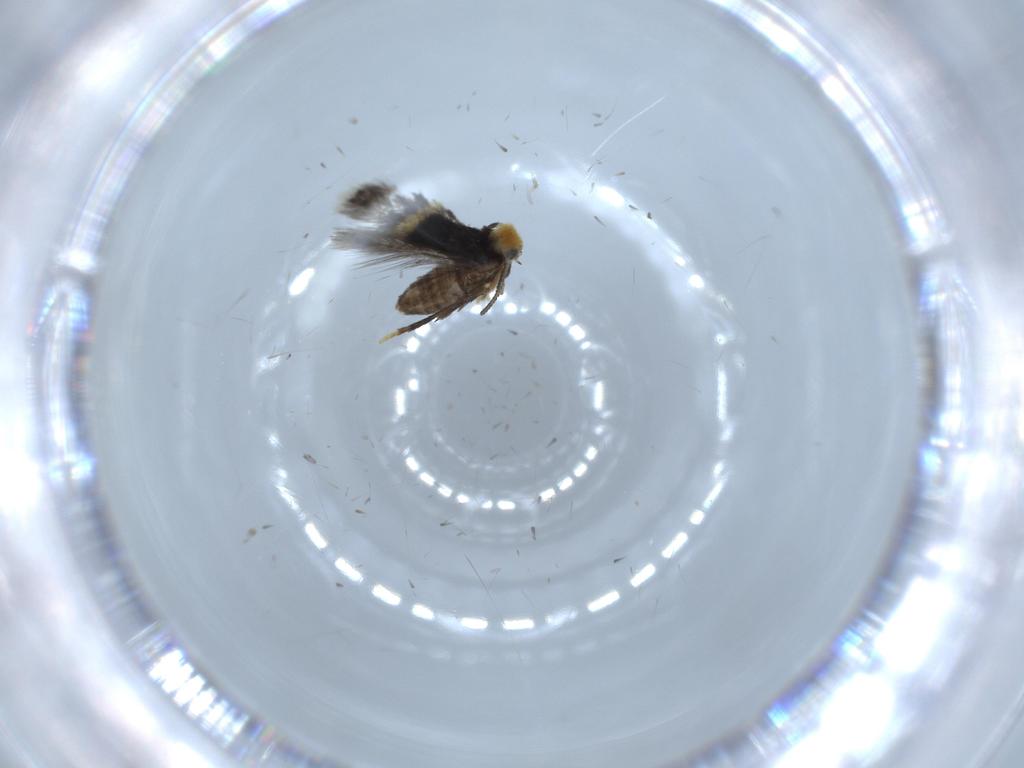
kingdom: Animalia
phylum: Arthropoda
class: Insecta
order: Lepidoptera
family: Nepticulidae
